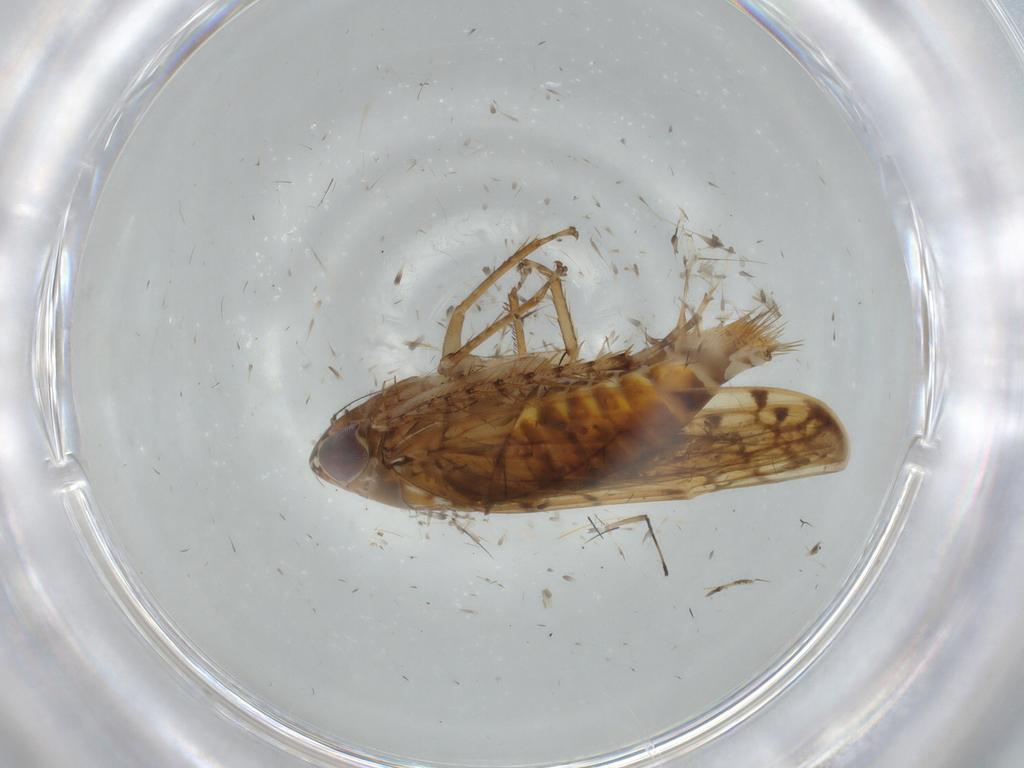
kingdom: Animalia
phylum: Arthropoda
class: Insecta
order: Hemiptera
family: Cicadellidae
